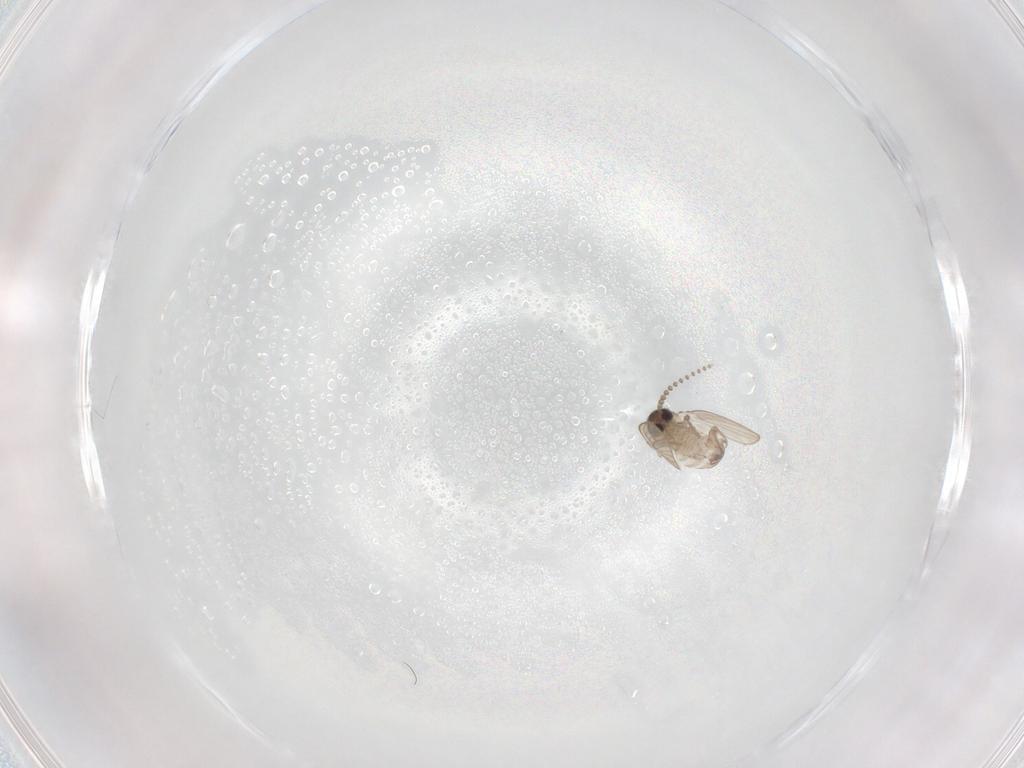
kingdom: Animalia
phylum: Arthropoda
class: Insecta
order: Diptera
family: Psychodidae
